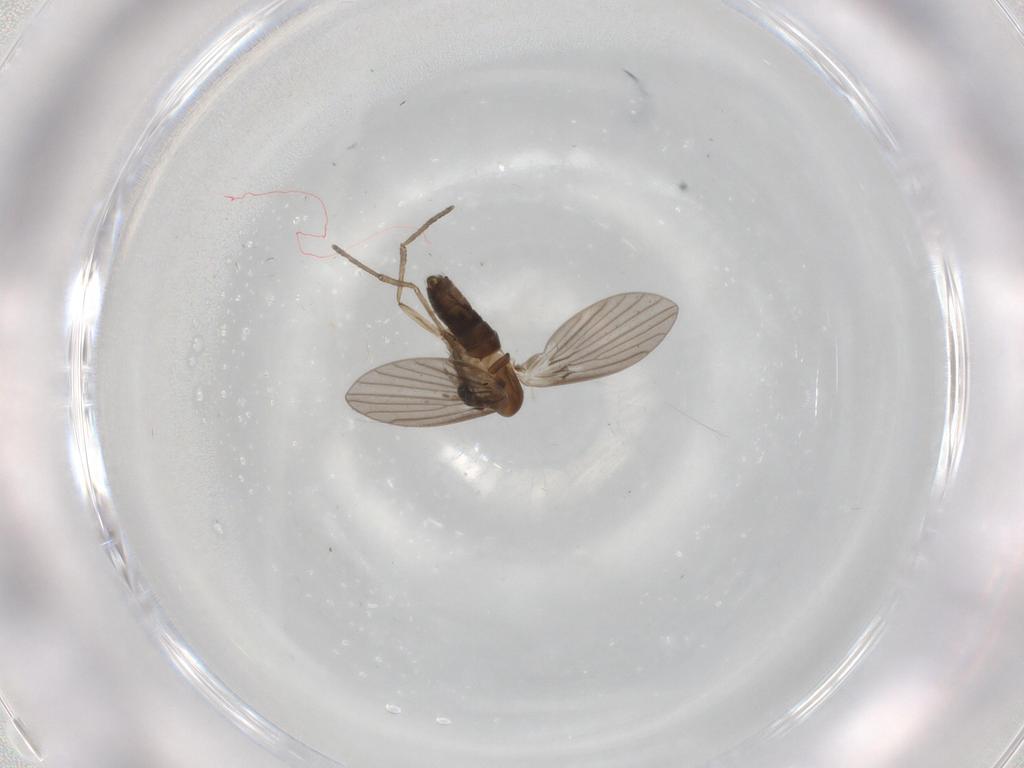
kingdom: Animalia
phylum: Arthropoda
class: Insecta
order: Diptera
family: Psychodidae
